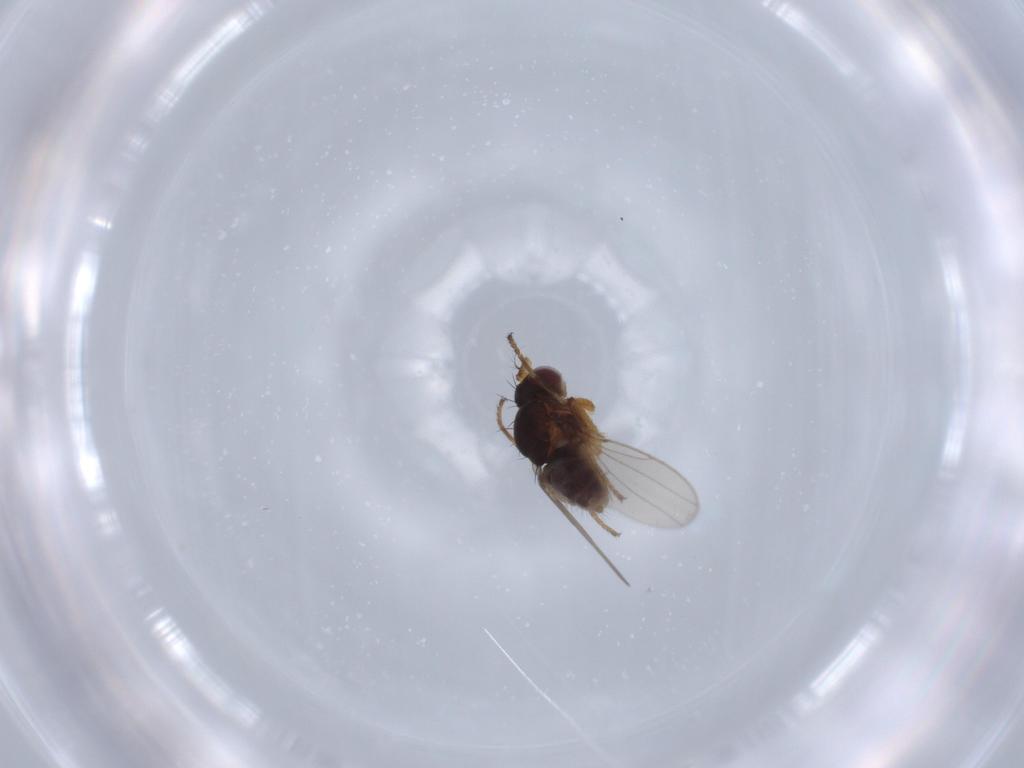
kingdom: Animalia
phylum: Arthropoda
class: Insecta
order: Diptera
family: Ephydridae
